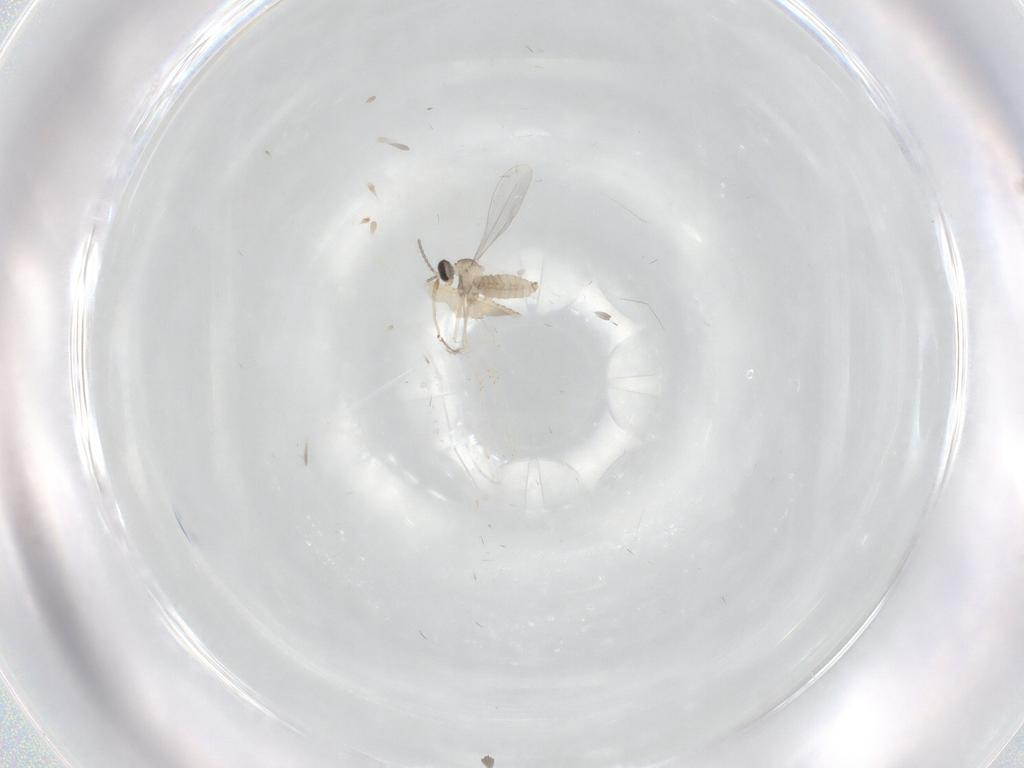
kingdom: Animalia
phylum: Arthropoda
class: Insecta
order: Diptera
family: Cecidomyiidae
